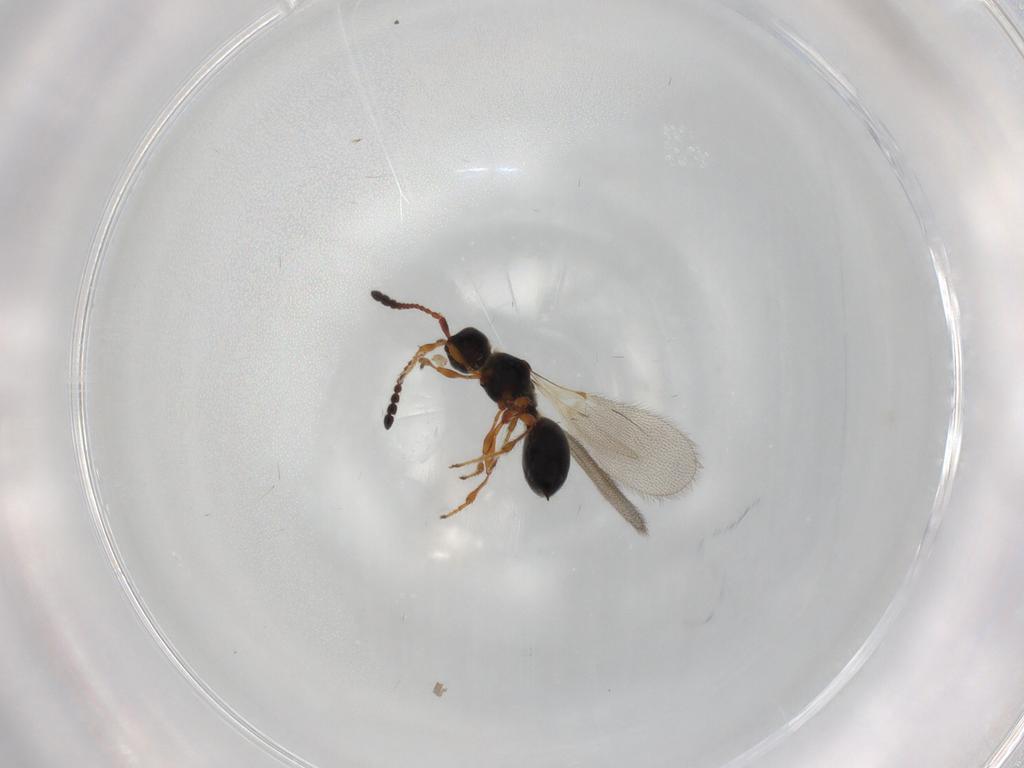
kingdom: Animalia
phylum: Arthropoda
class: Insecta
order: Hymenoptera
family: Diapriidae
